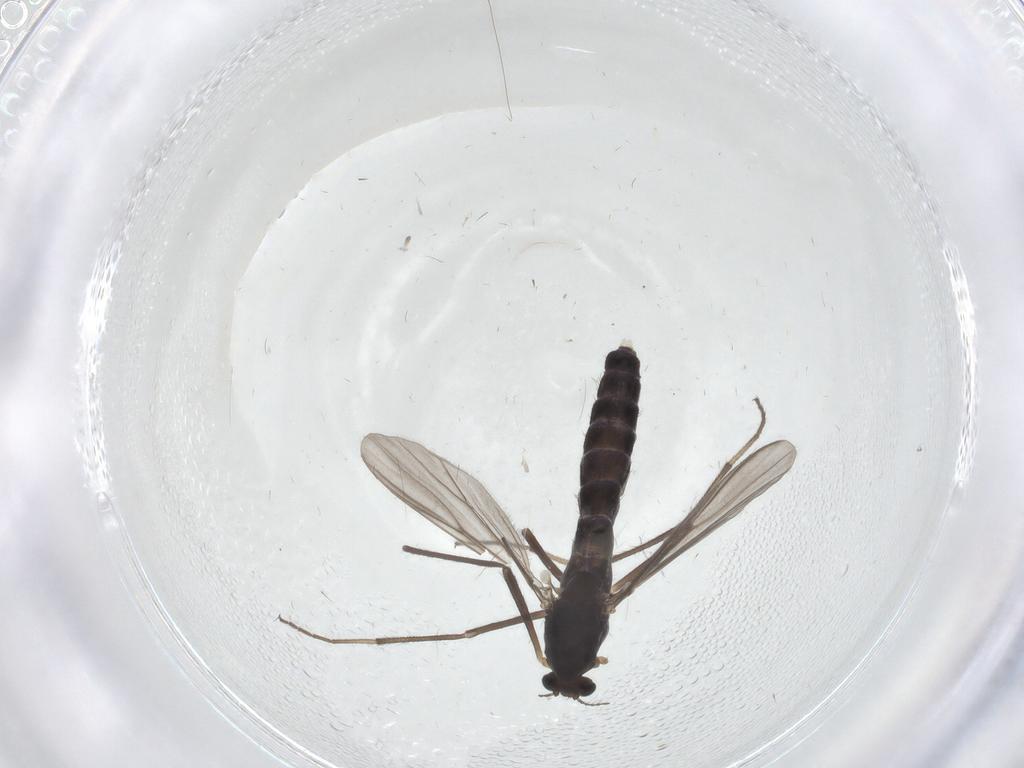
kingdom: Animalia
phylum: Arthropoda
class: Insecta
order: Diptera
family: Chironomidae
